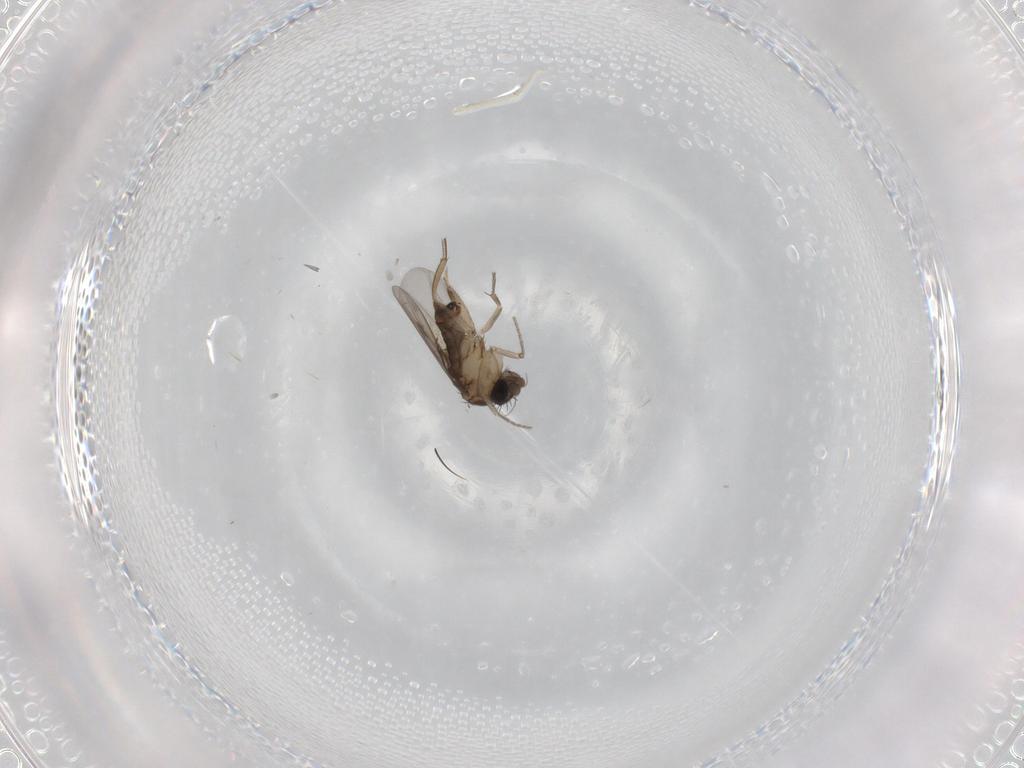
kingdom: Animalia
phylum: Arthropoda
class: Insecta
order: Diptera
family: Phoridae
